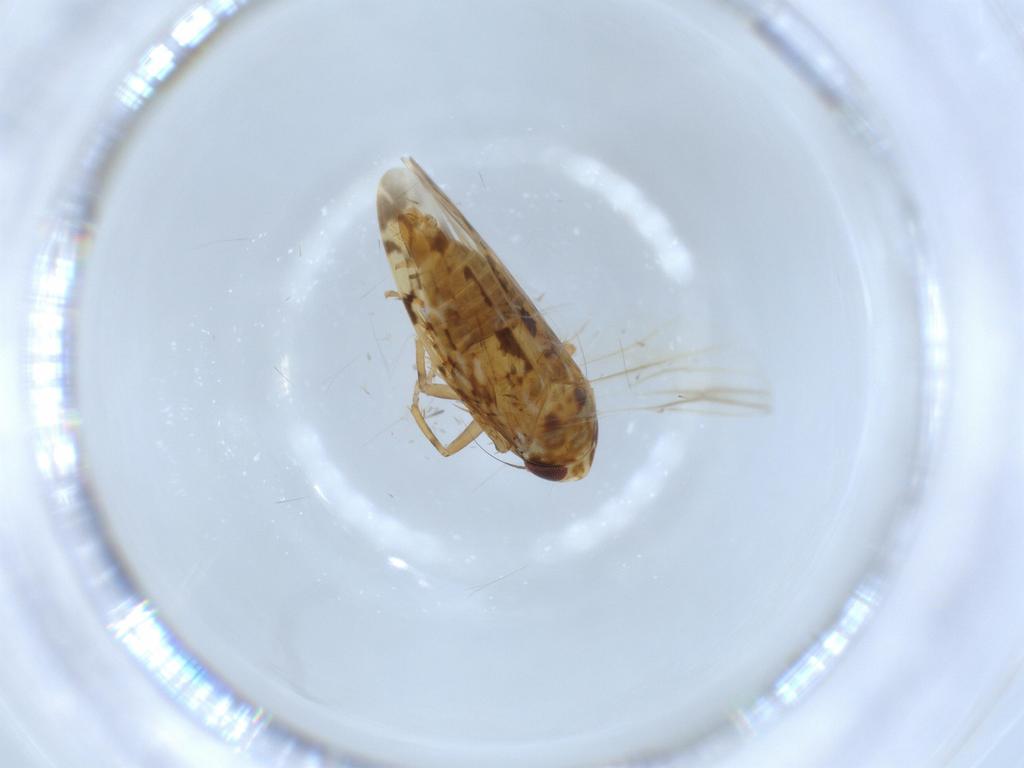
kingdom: Animalia
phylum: Arthropoda
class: Insecta
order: Hemiptera
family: Cicadellidae
